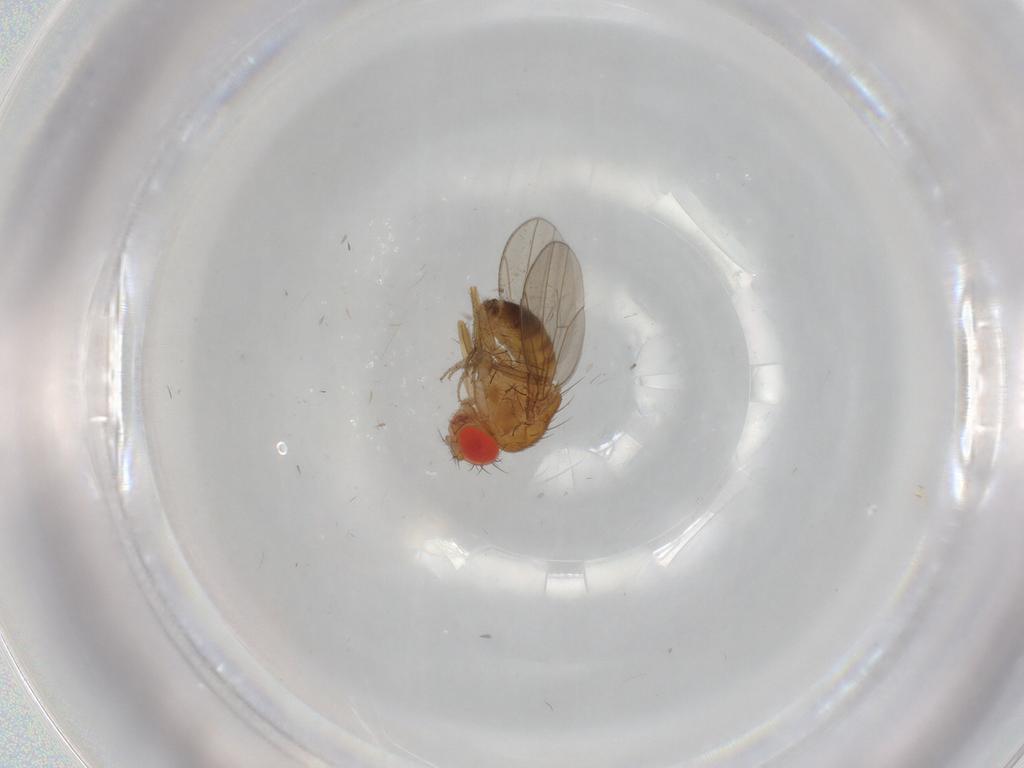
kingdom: Animalia
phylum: Arthropoda
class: Insecta
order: Diptera
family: Drosophilidae
